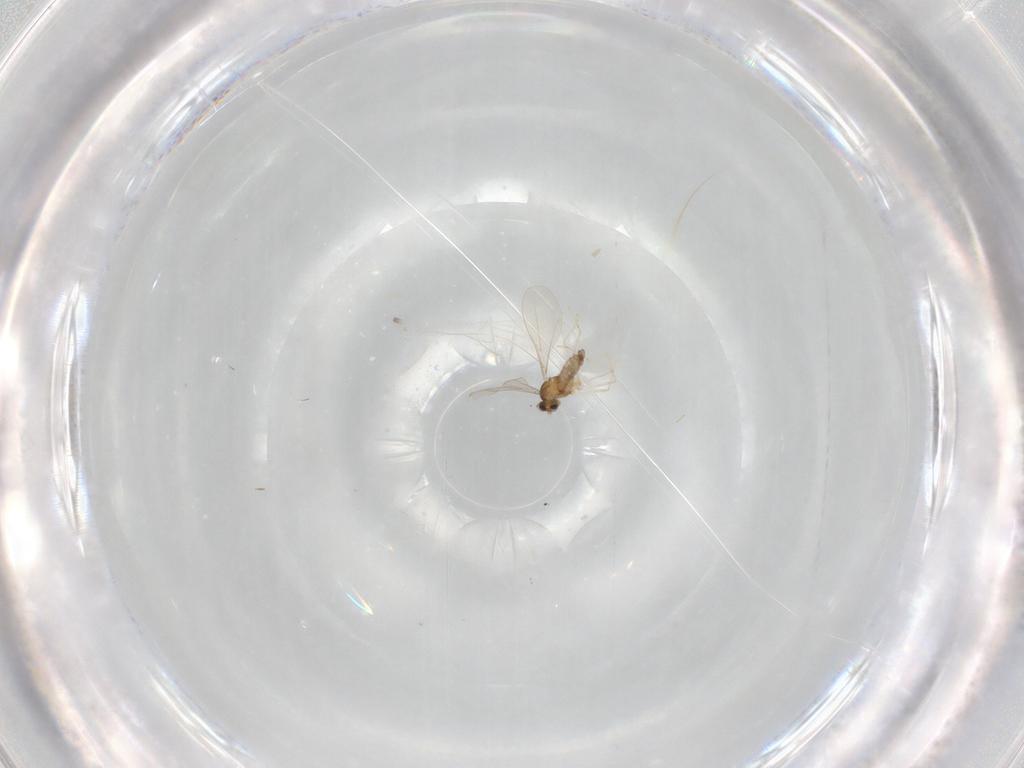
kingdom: Animalia
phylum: Arthropoda
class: Insecta
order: Diptera
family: Cecidomyiidae
